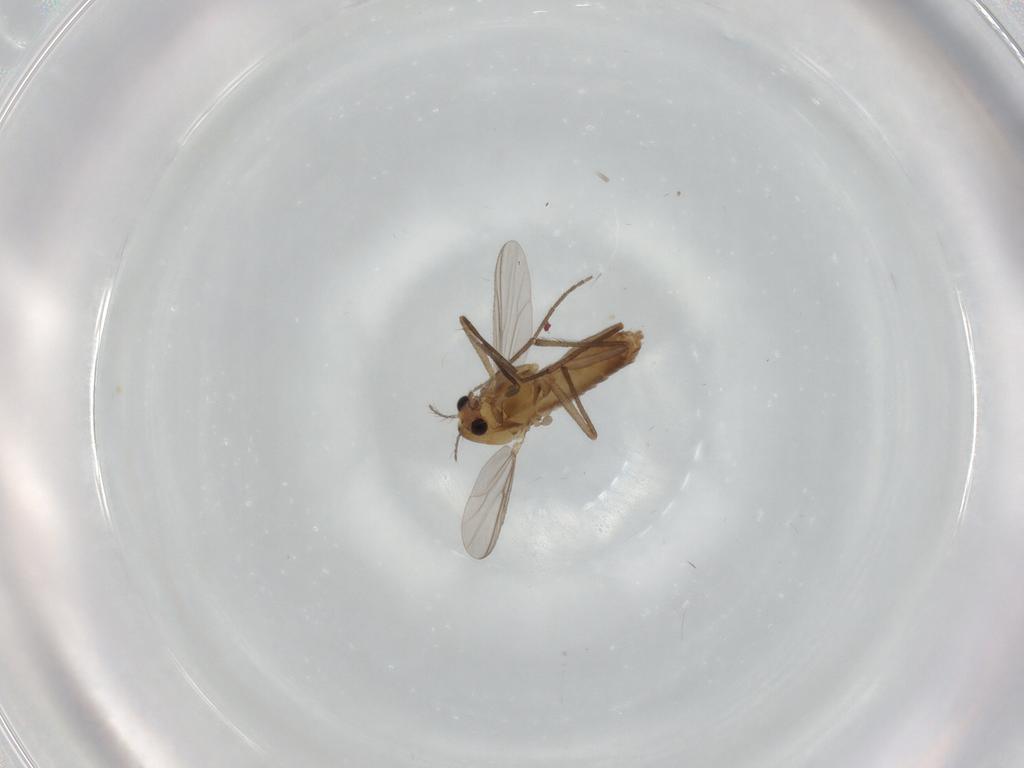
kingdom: Animalia
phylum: Arthropoda
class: Insecta
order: Diptera
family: Chironomidae
